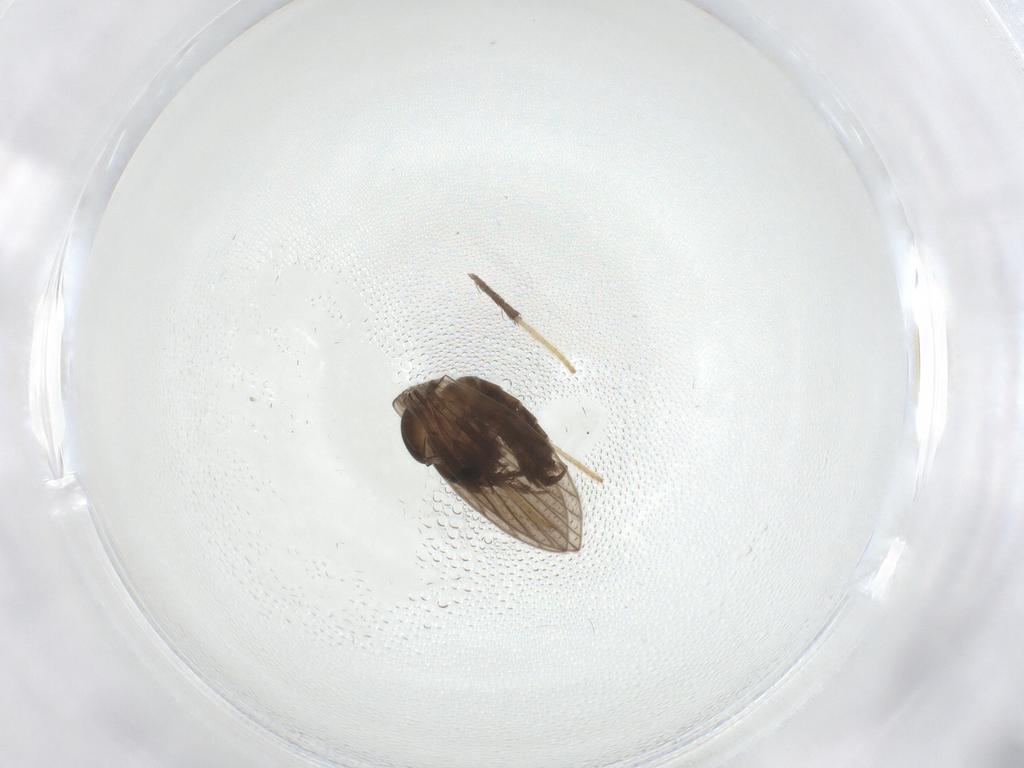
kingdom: Animalia
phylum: Arthropoda
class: Insecta
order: Diptera
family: Psychodidae
